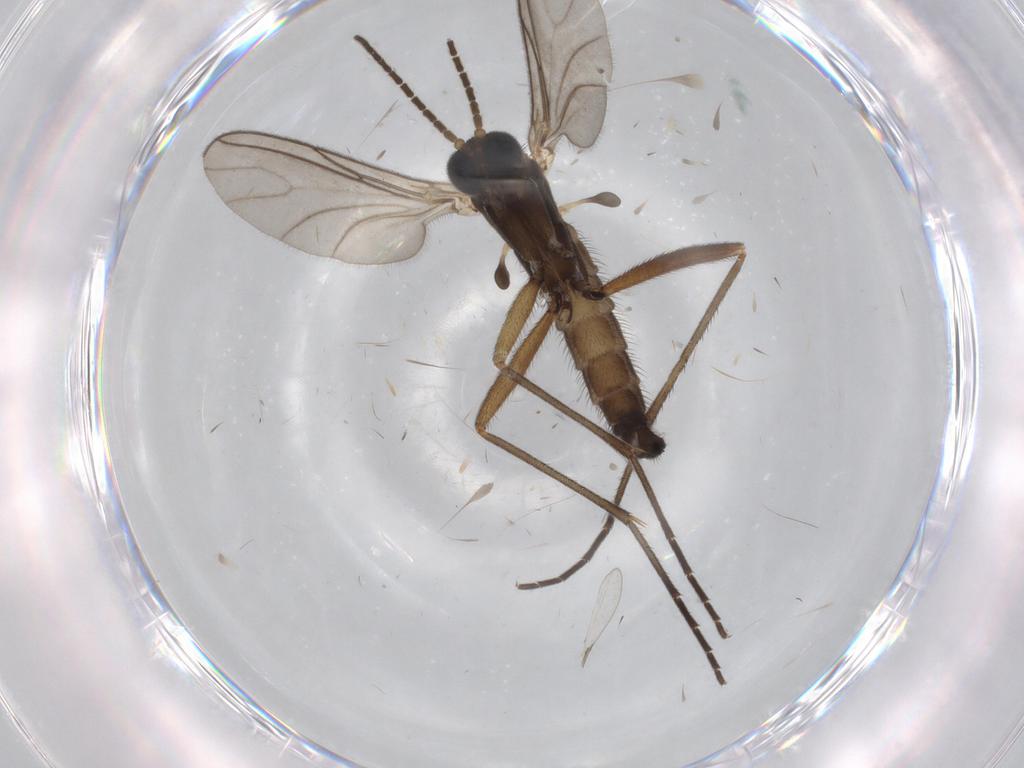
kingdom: Animalia
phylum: Arthropoda
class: Insecta
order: Diptera
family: Sciaridae
